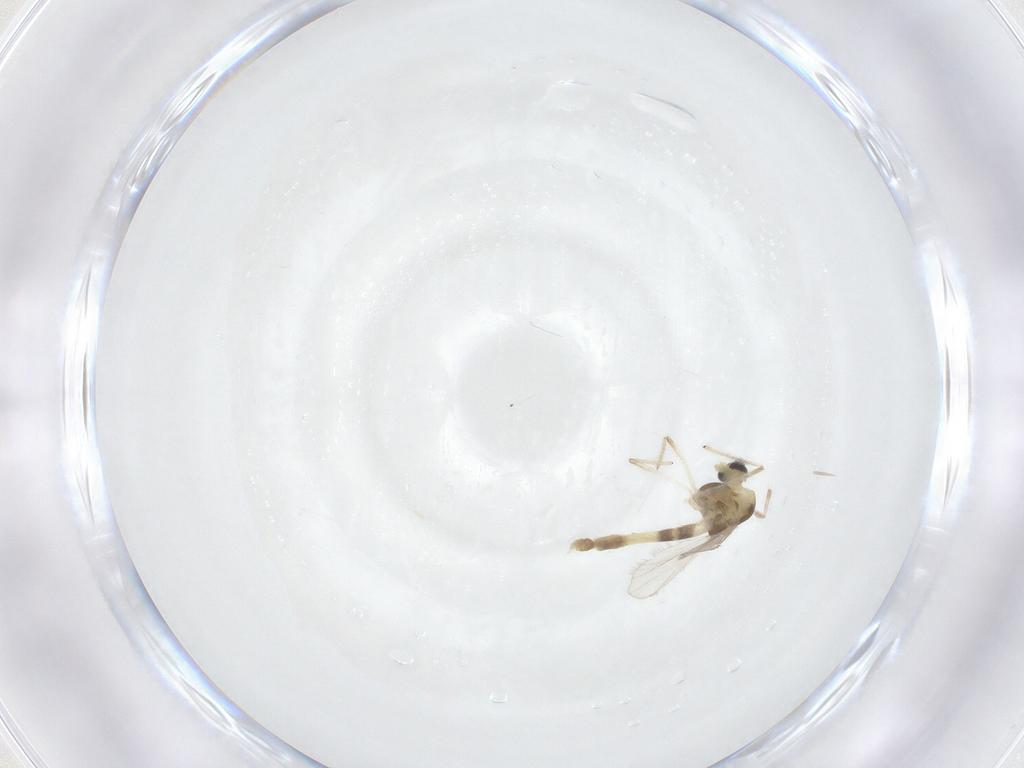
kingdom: Animalia
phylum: Arthropoda
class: Insecta
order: Diptera
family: Chironomidae
